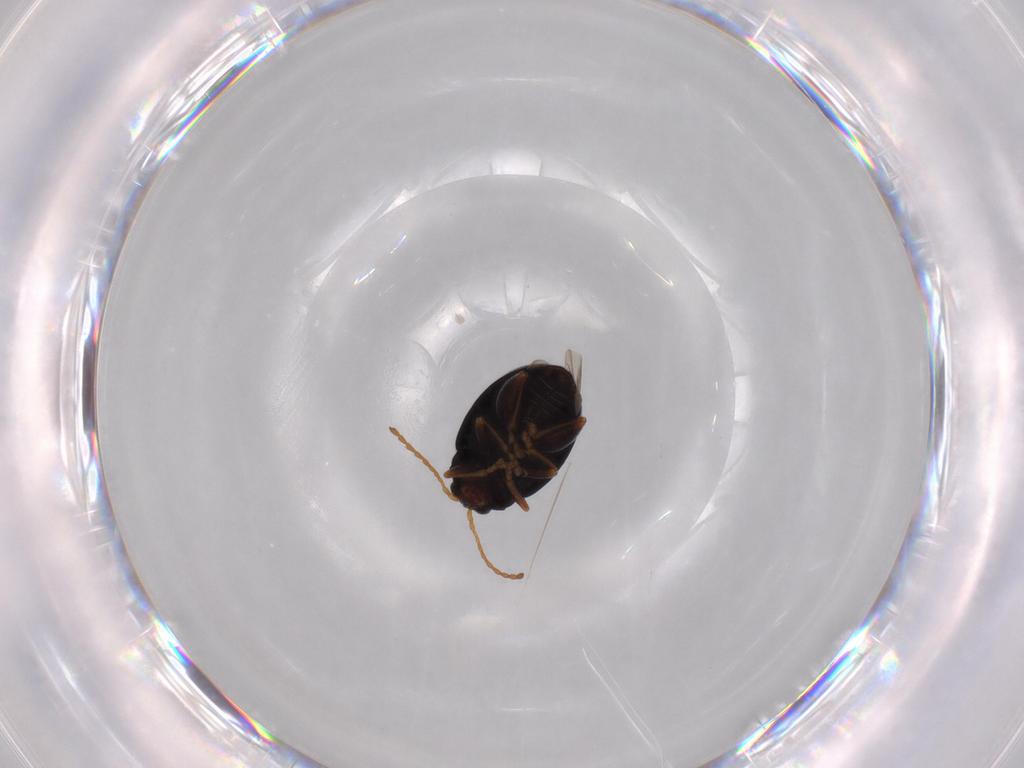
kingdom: Animalia
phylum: Arthropoda
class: Insecta
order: Coleoptera
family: Chrysomelidae
